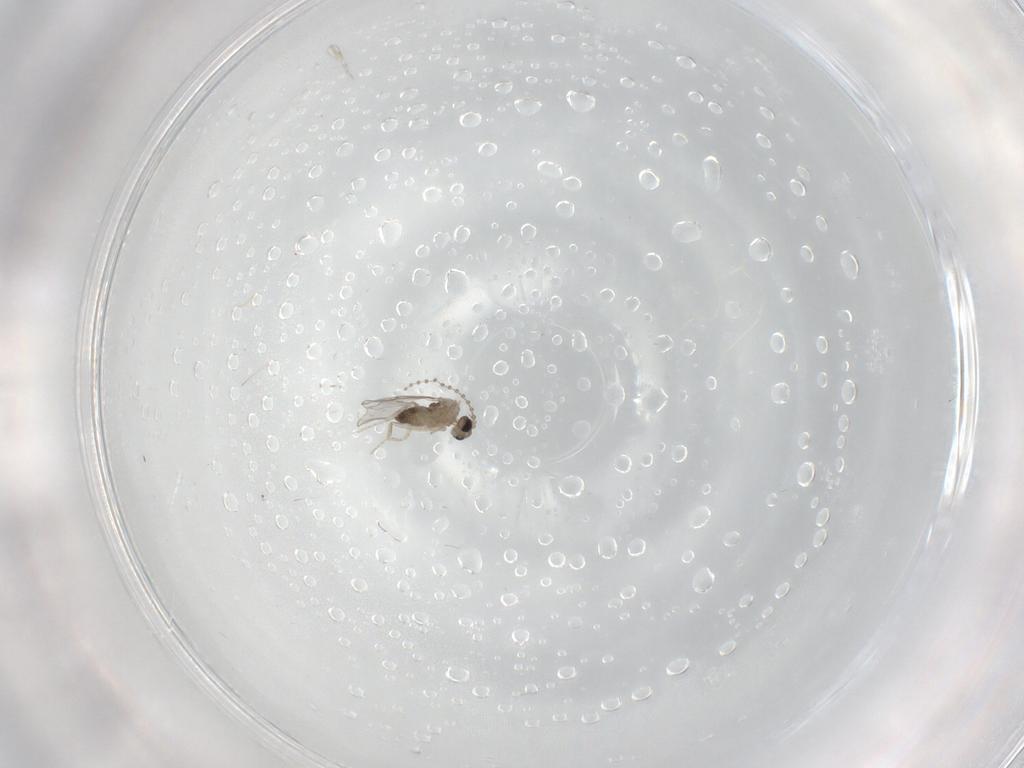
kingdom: Animalia
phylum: Arthropoda
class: Insecta
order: Diptera
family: Cecidomyiidae
